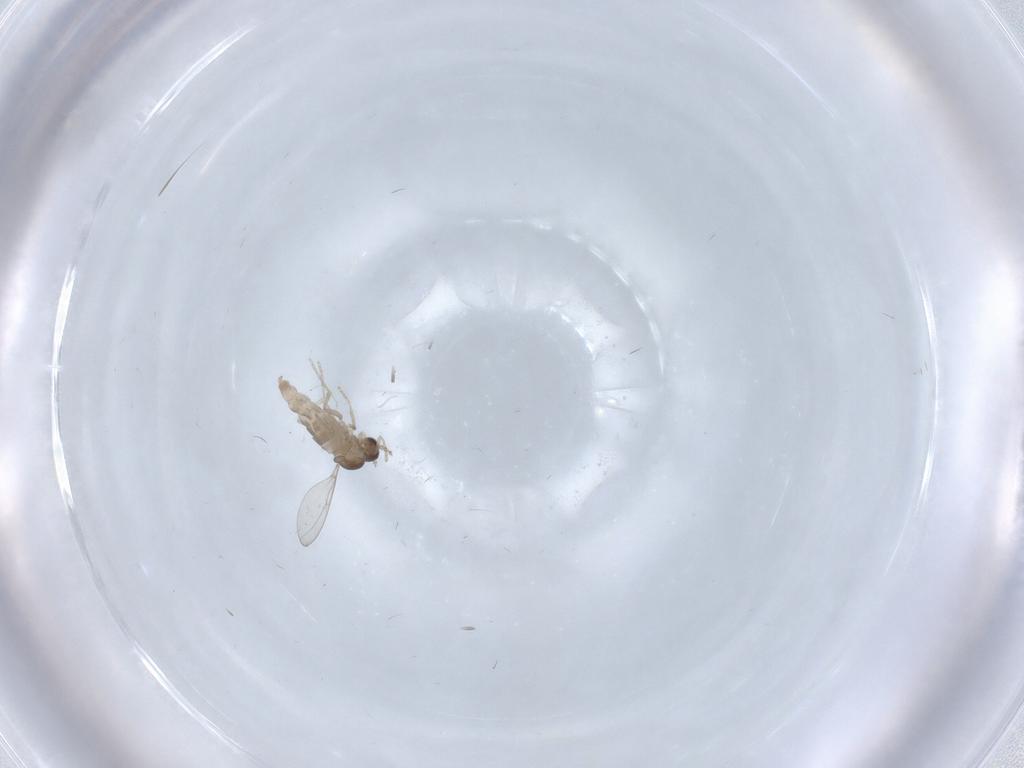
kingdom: Animalia
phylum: Arthropoda
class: Insecta
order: Diptera
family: Cecidomyiidae
